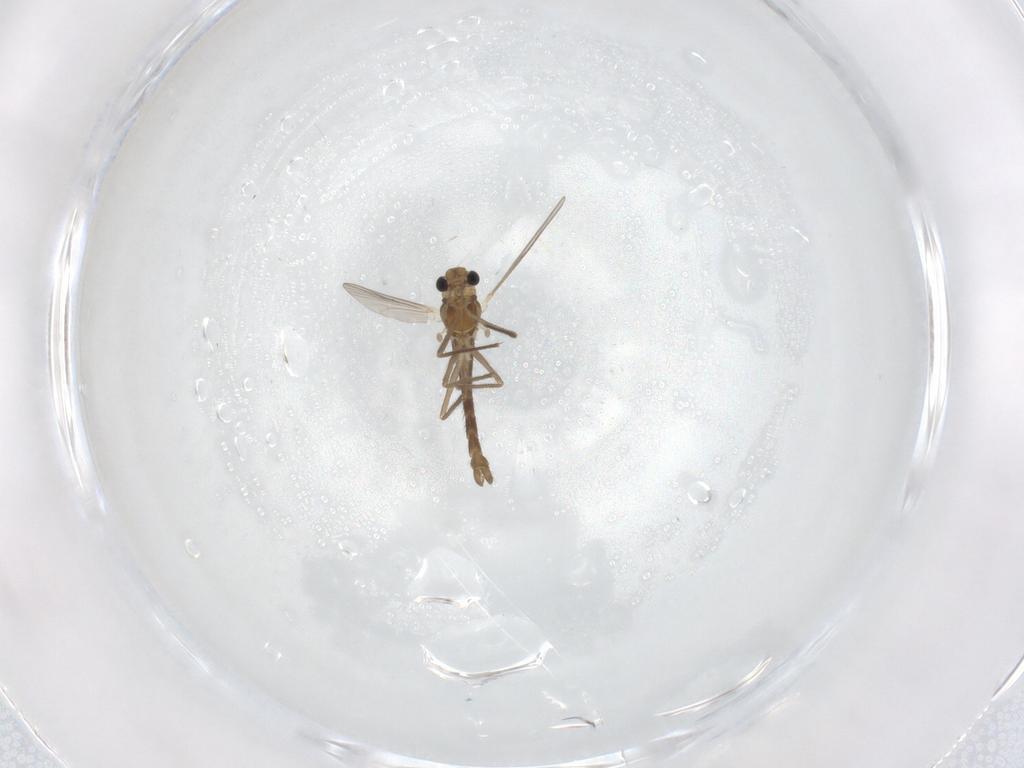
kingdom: Animalia
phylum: Arthropoda
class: Insecta
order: Diptera
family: Chironomidae
